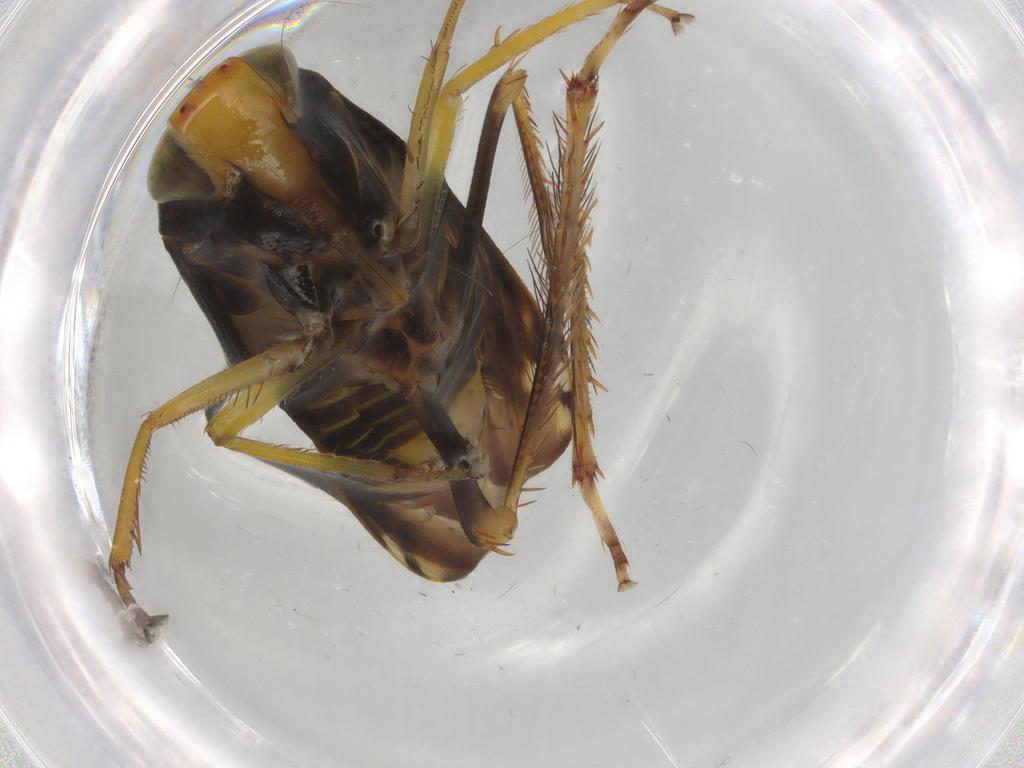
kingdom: Animalia
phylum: Arthropoda
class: Insecta
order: Hemiptera
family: Cicadellidae
